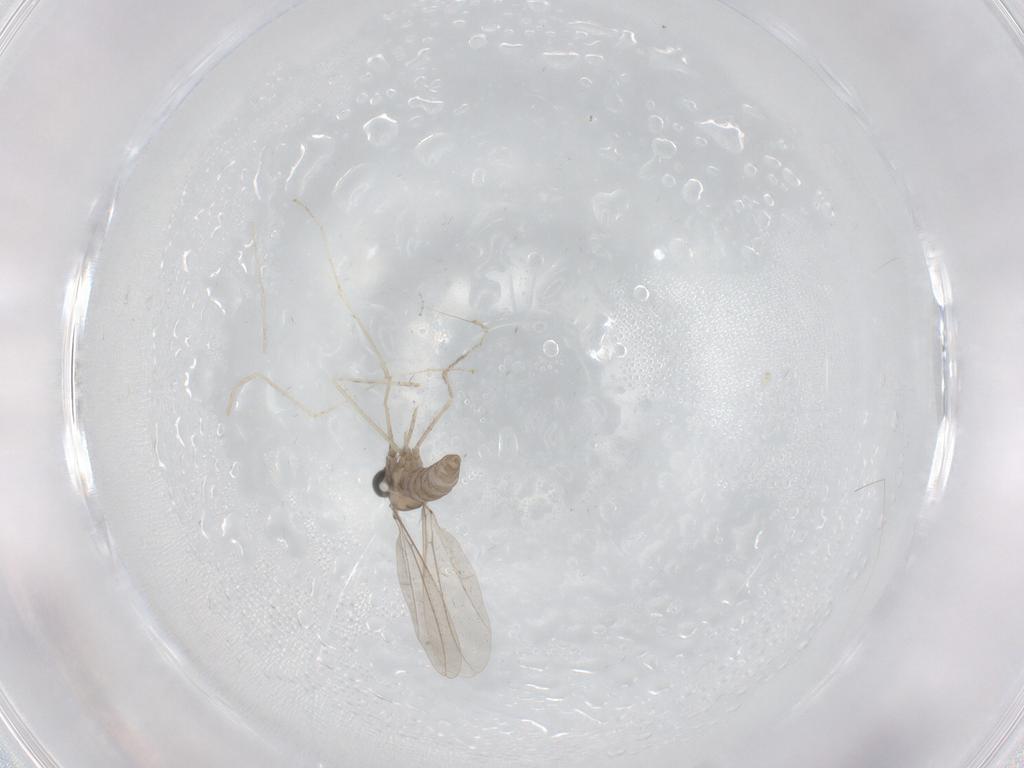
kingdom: Animalia
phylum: Arthropoda
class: Insecta
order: Diptera
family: Cecidomyiidae
